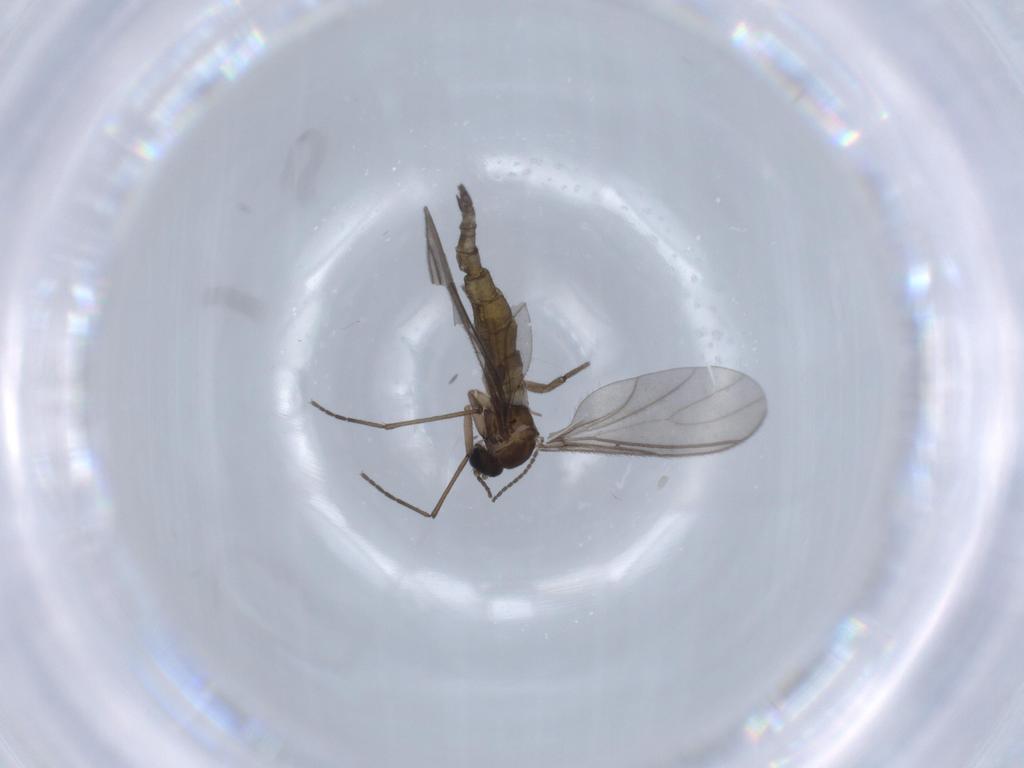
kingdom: Animalia
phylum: Arthropoda
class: Insecta
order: Diptera
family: Sciaridae
